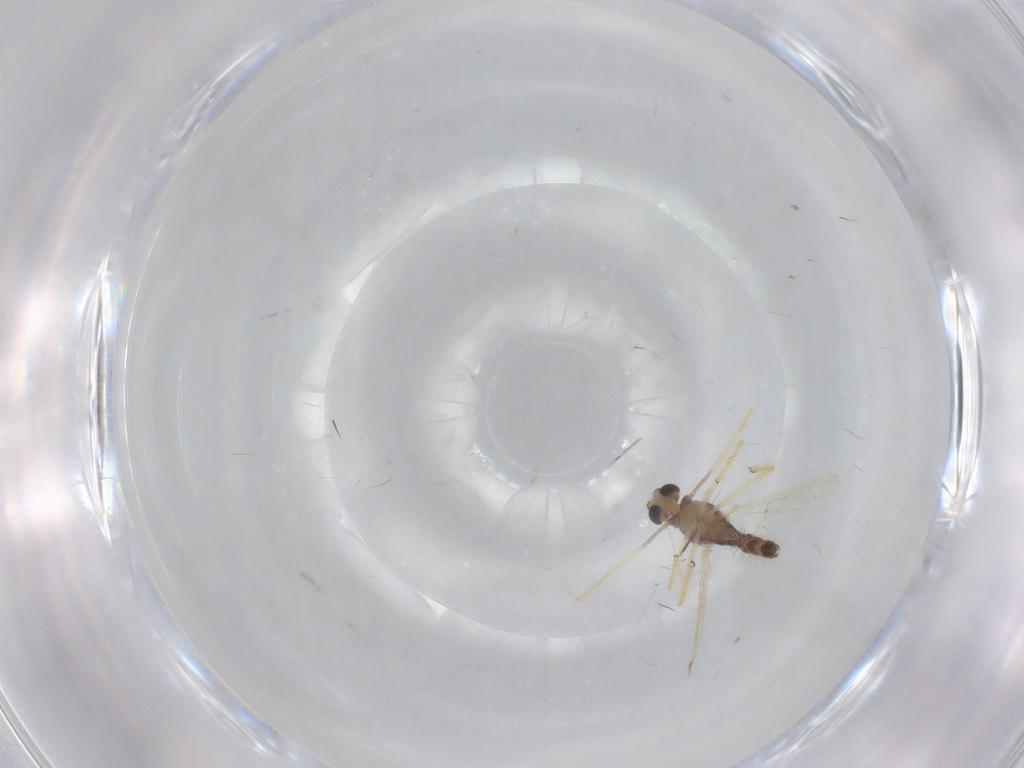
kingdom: Animalia
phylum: Arthropoda
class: Insecta
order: Diptera
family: Chironomidae
